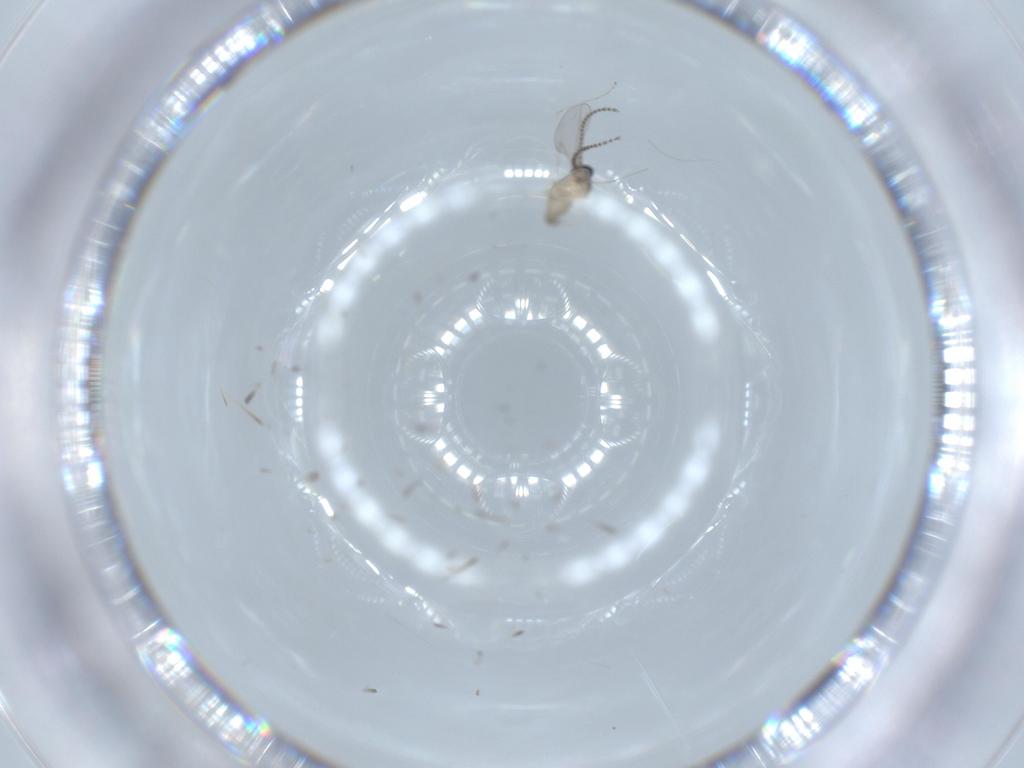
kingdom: Animalia
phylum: Arthropoda
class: Insecta
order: Diptera
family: Cecidomyiidae
